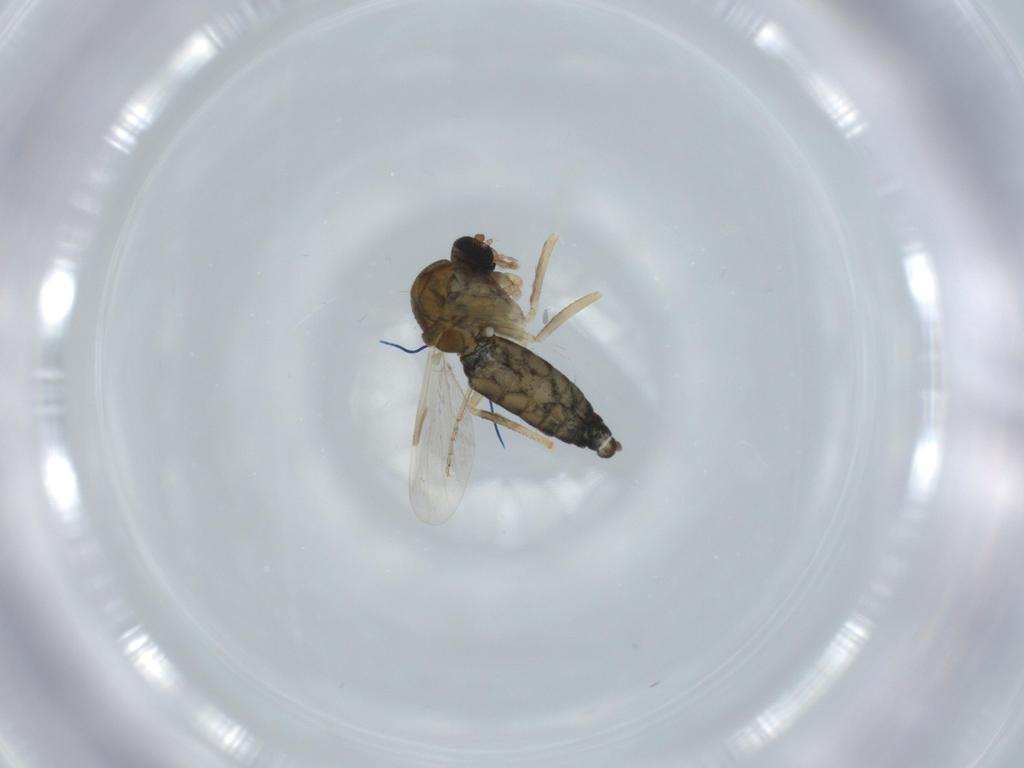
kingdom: Animalia
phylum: Arthropoda
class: Insecta
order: Diptera
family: Ceratopogonidae
